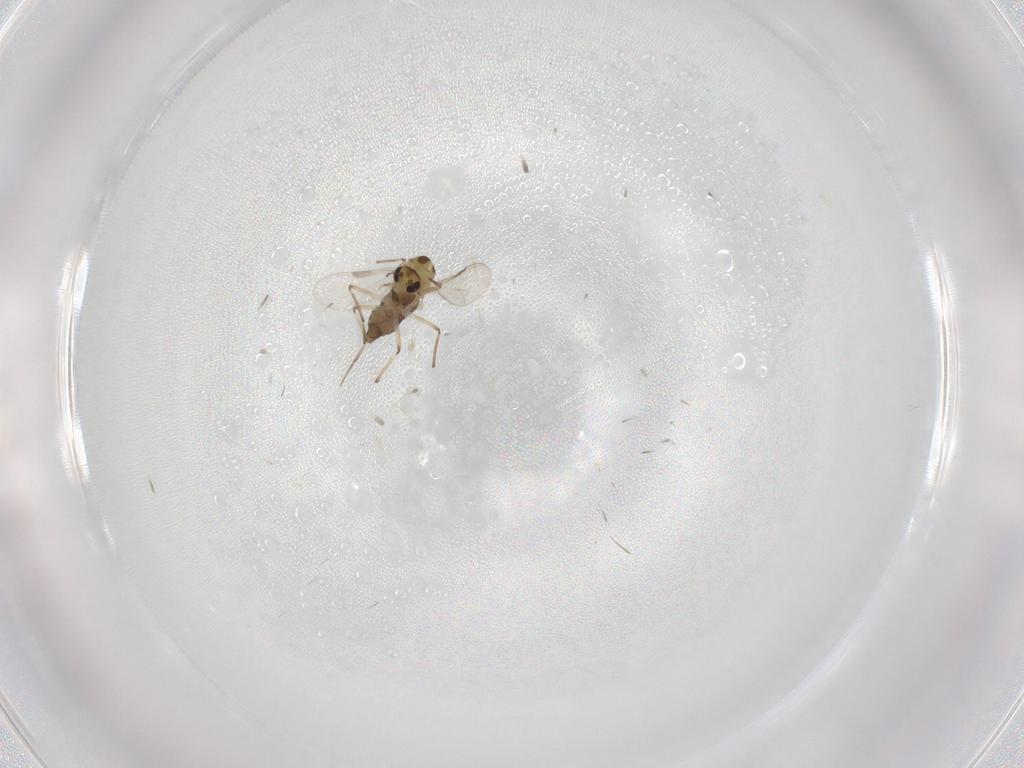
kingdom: Animalia
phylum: Arthropoda
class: Insecta
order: Diptera
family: Chironomidae
